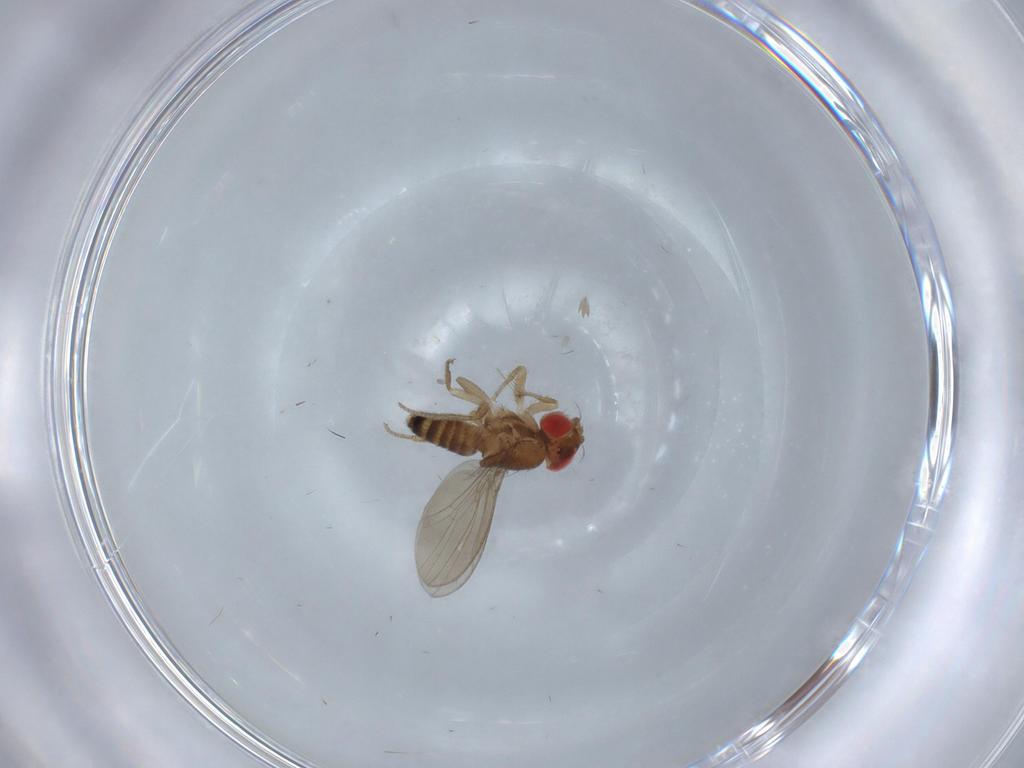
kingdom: Animalia
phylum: Arthropoda
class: Insecta
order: Diptera
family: Drosophilidae
